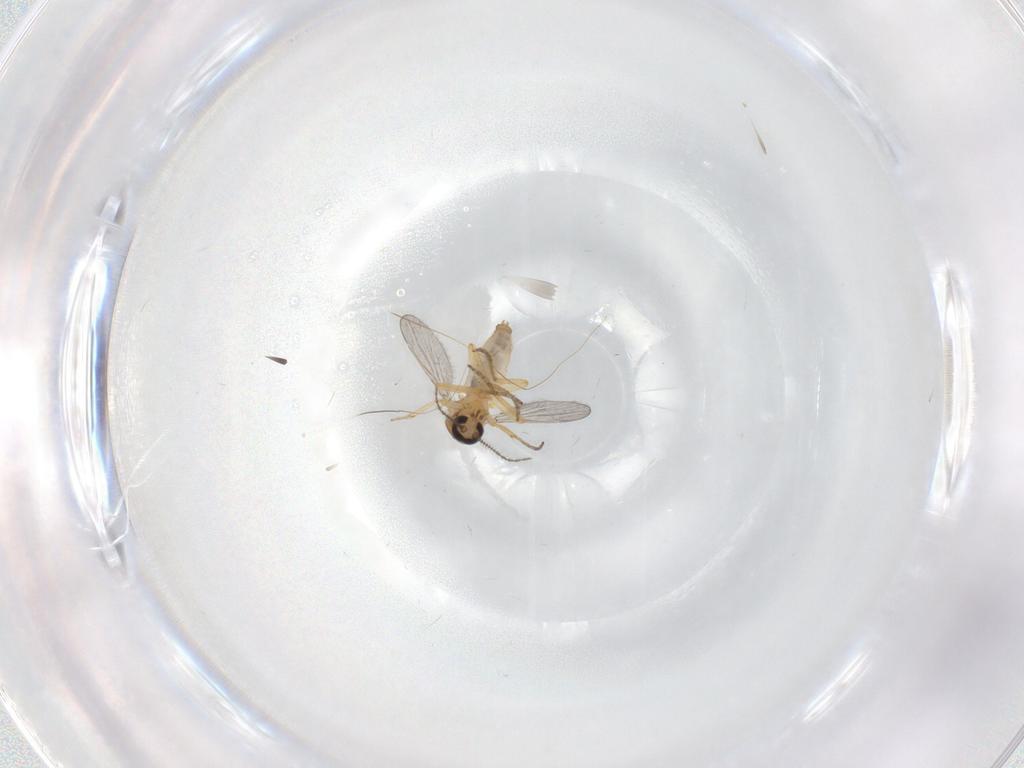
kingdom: Animalia
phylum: Arthropoda
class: Insecta
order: Diptera
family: Ceratopogonidae
